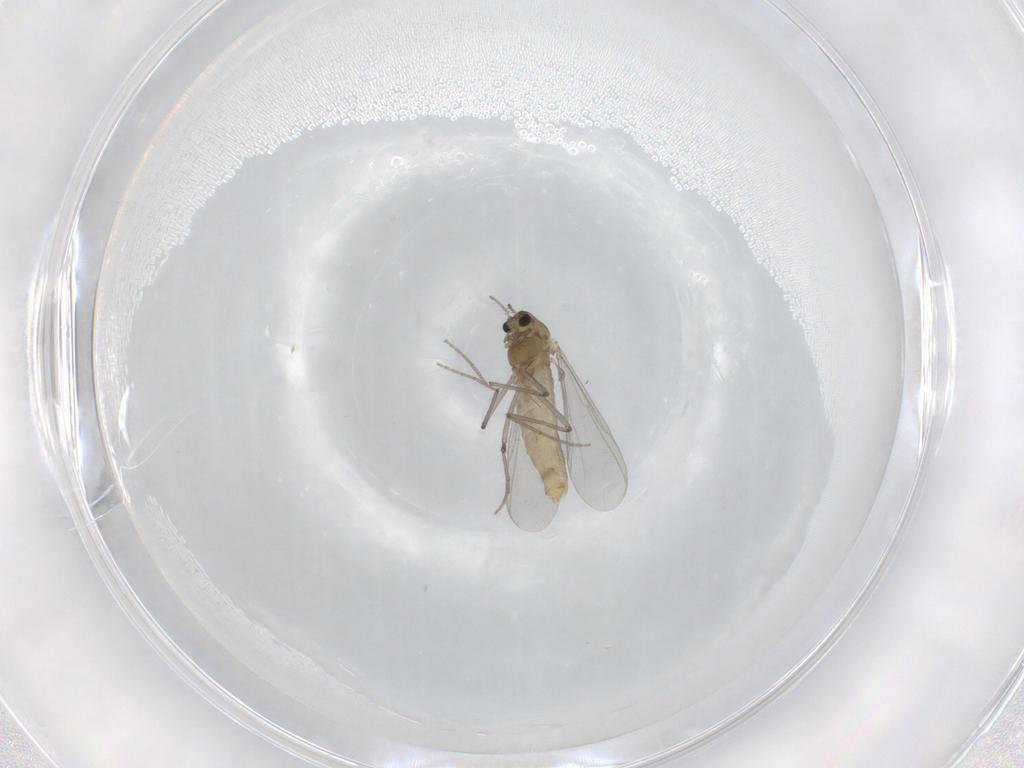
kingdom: Animalia
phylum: Arthropoda
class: Insecta
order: Diptera
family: Chironomidae
